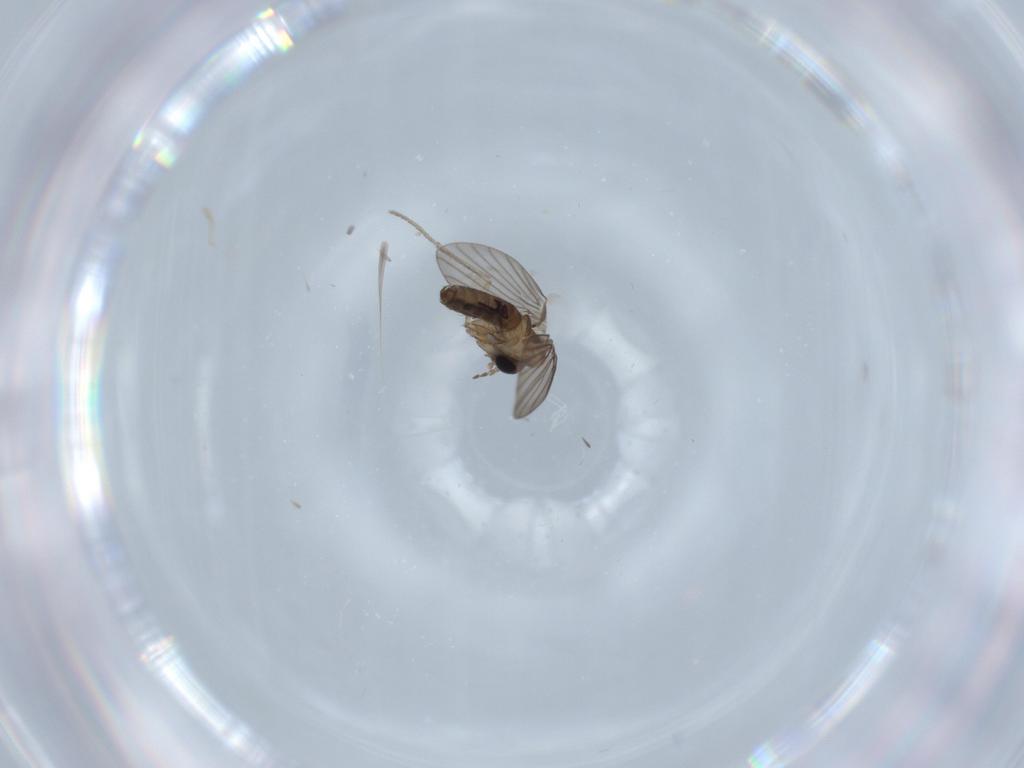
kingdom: Animalia
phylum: Arthropoda
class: Insecta
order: Diptera
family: Psychodidae
